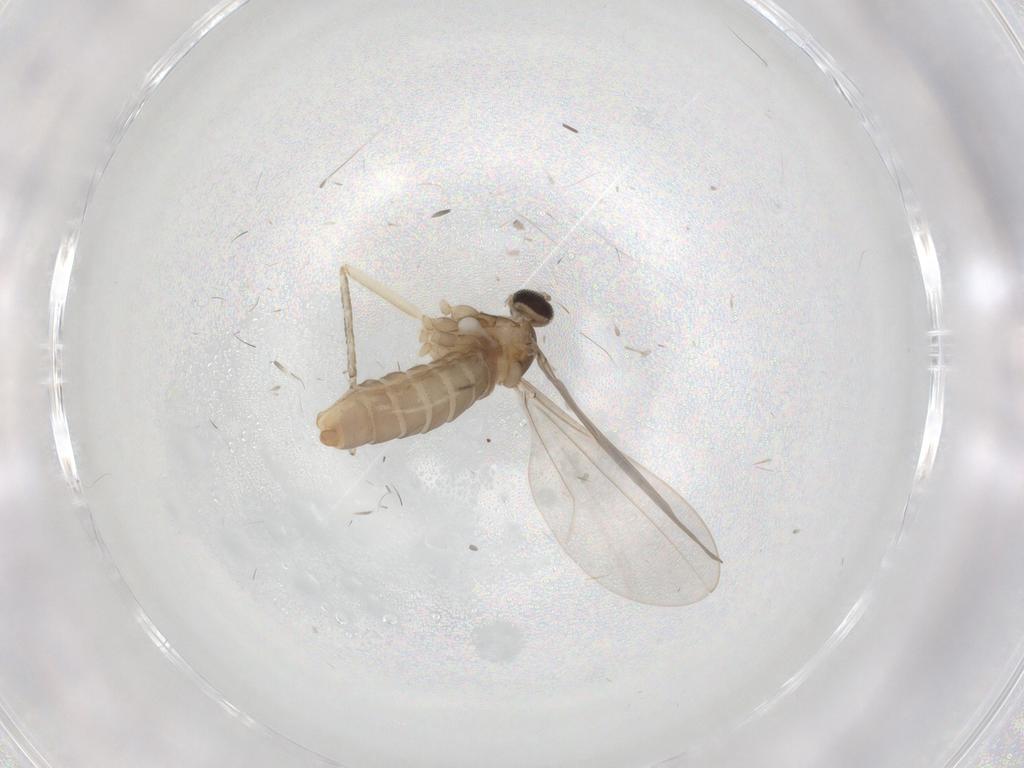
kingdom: Animalia
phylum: Arthropoda
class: Insecta
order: Diptera
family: Cecidomyiidae
